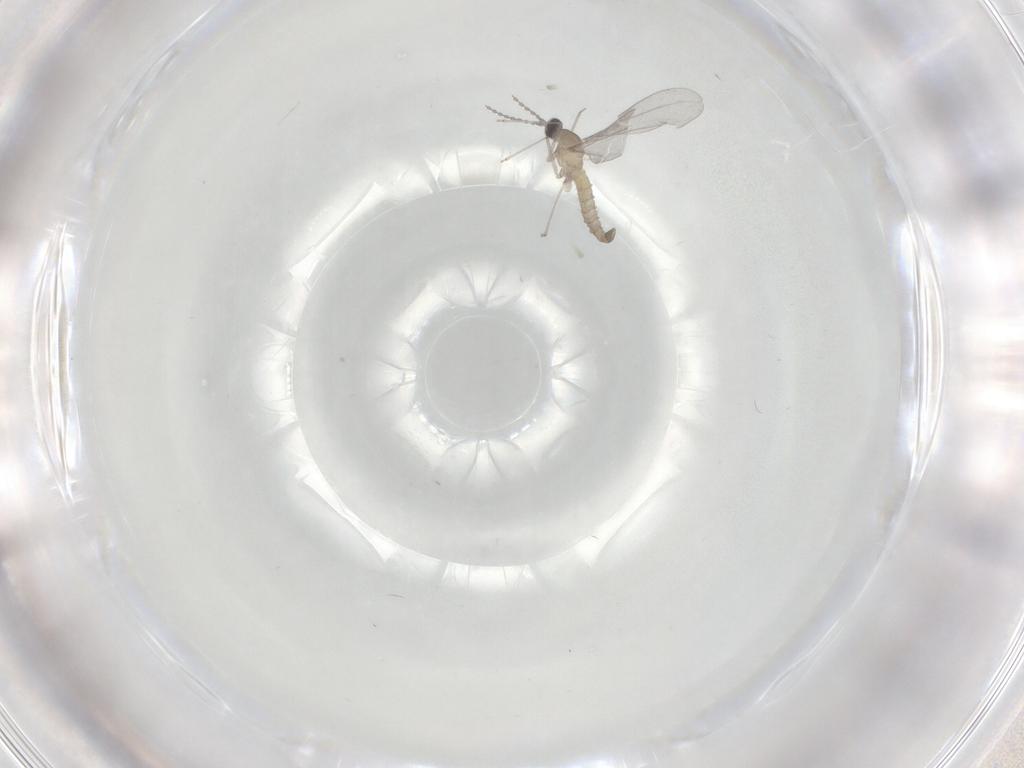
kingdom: Animalia
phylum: Arthropoda
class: Insecta
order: Diptera
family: Cecidomyiidae
